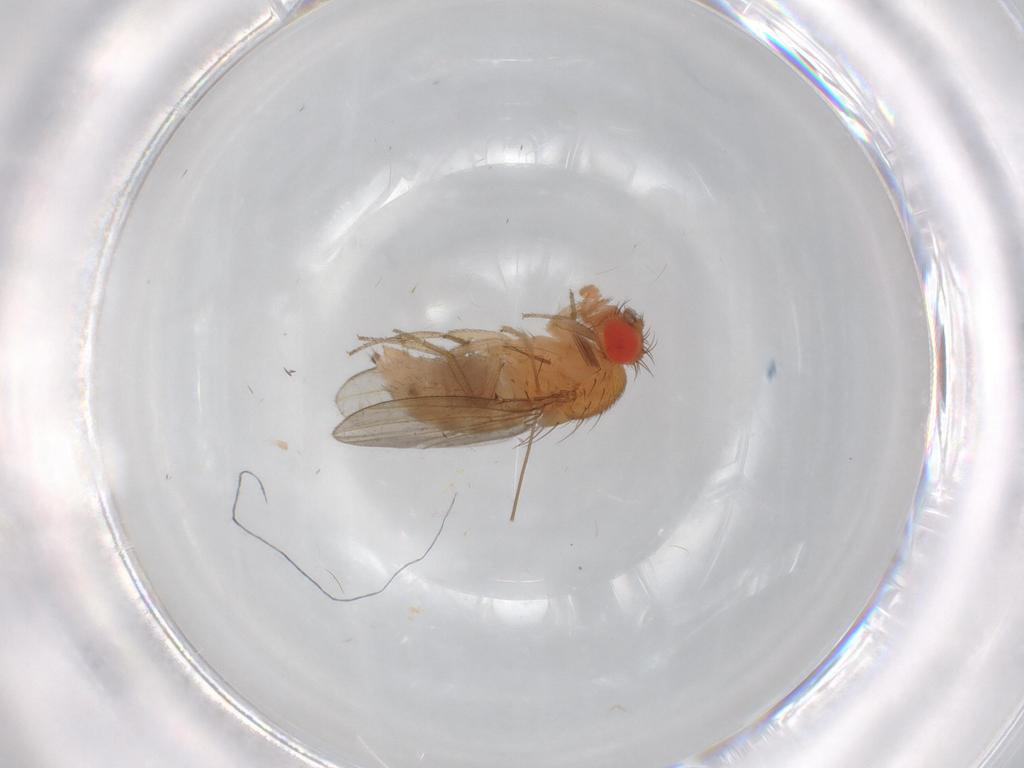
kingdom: Animalia
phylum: Arthropoda
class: Insecta
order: Diptera
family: Drosophilidae
